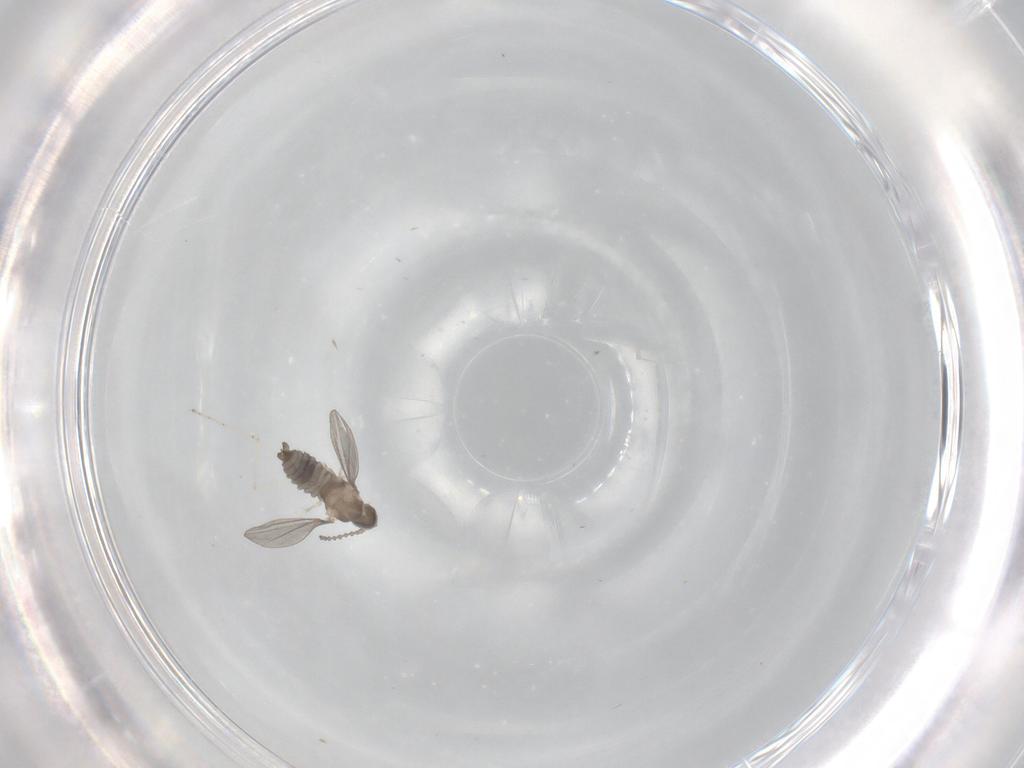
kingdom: Animalia
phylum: Arthropoda
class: Insecta
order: Diptera
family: Cecidomyiidae
